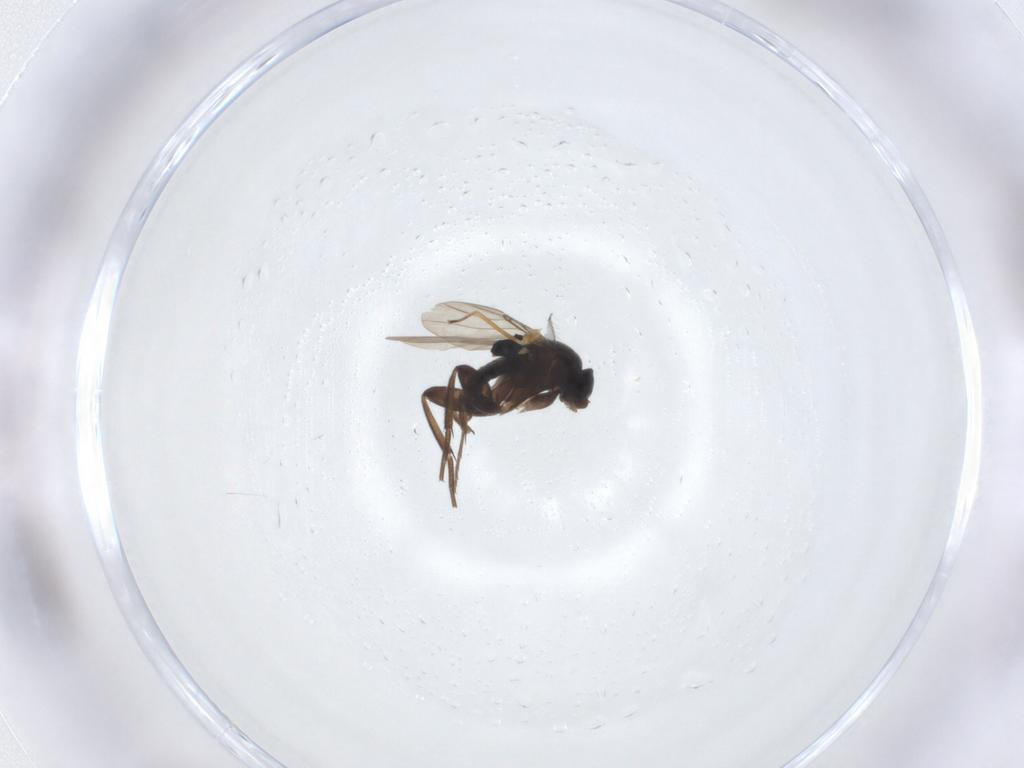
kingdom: Animalia
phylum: Arthropoda
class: Insecta
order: Diptera
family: Phoridae
